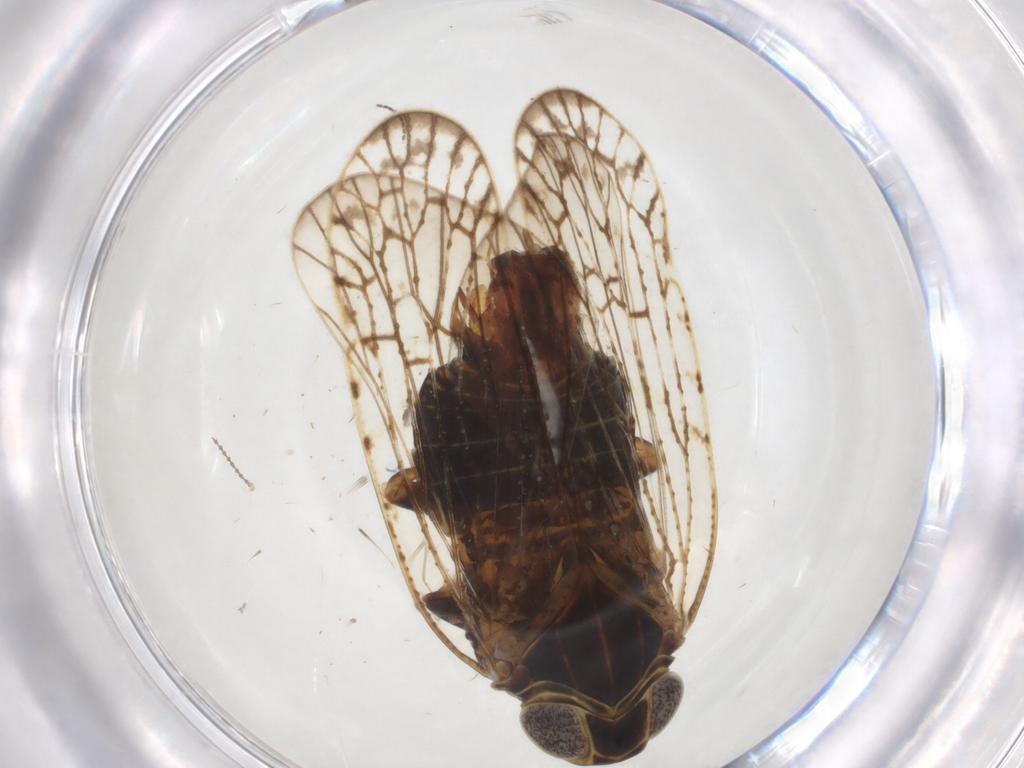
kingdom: Animalia
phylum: Arthropoda
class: Insecta
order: Hemiptera
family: Cixiidae
